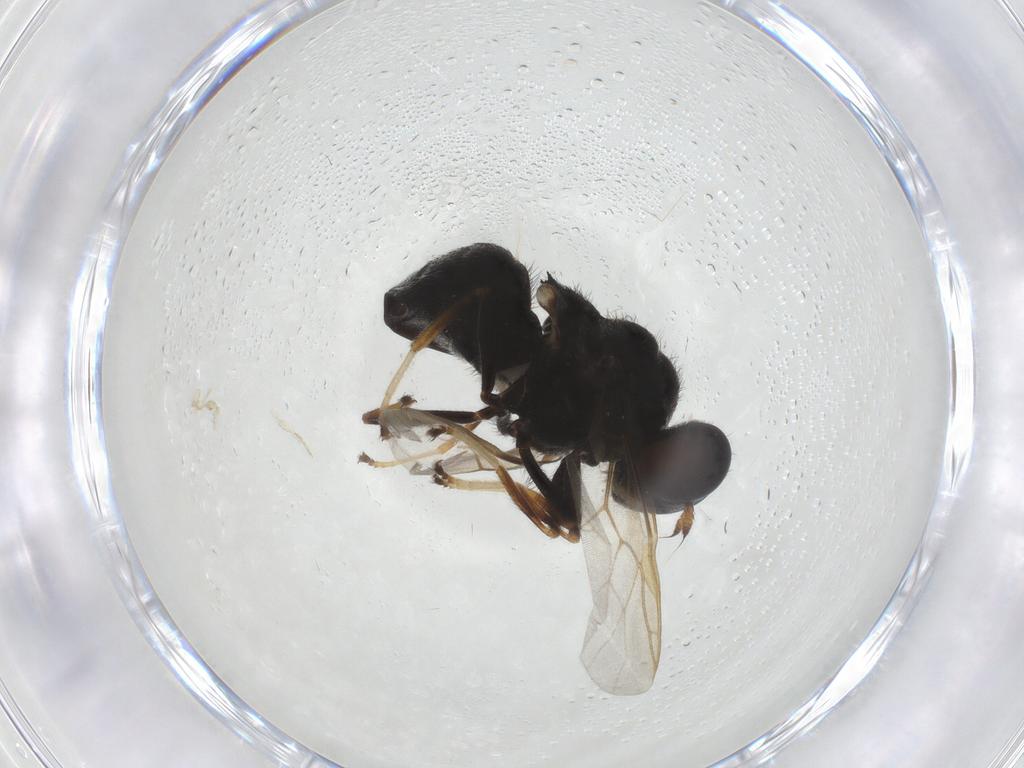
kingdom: Animalia
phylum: Arthropoda
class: Insecta
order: Diptera
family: Stratiomyidae
